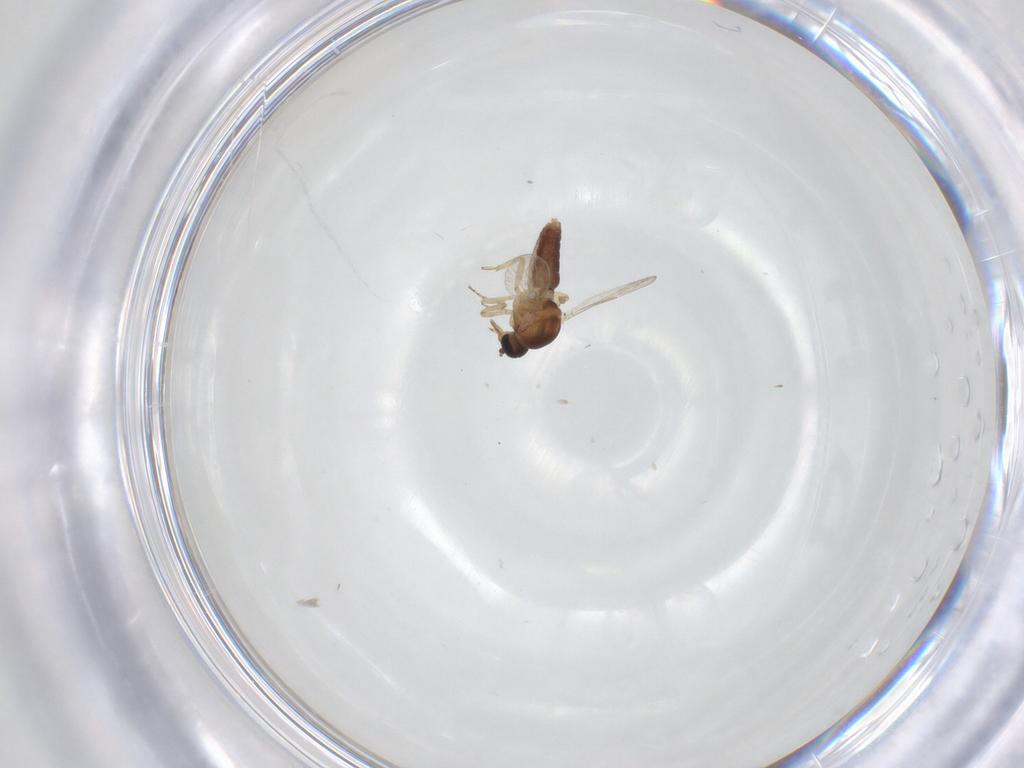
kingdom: Animalia
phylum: Arthropoda
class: Insecta
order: Diptera
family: Ceratopogonidae
